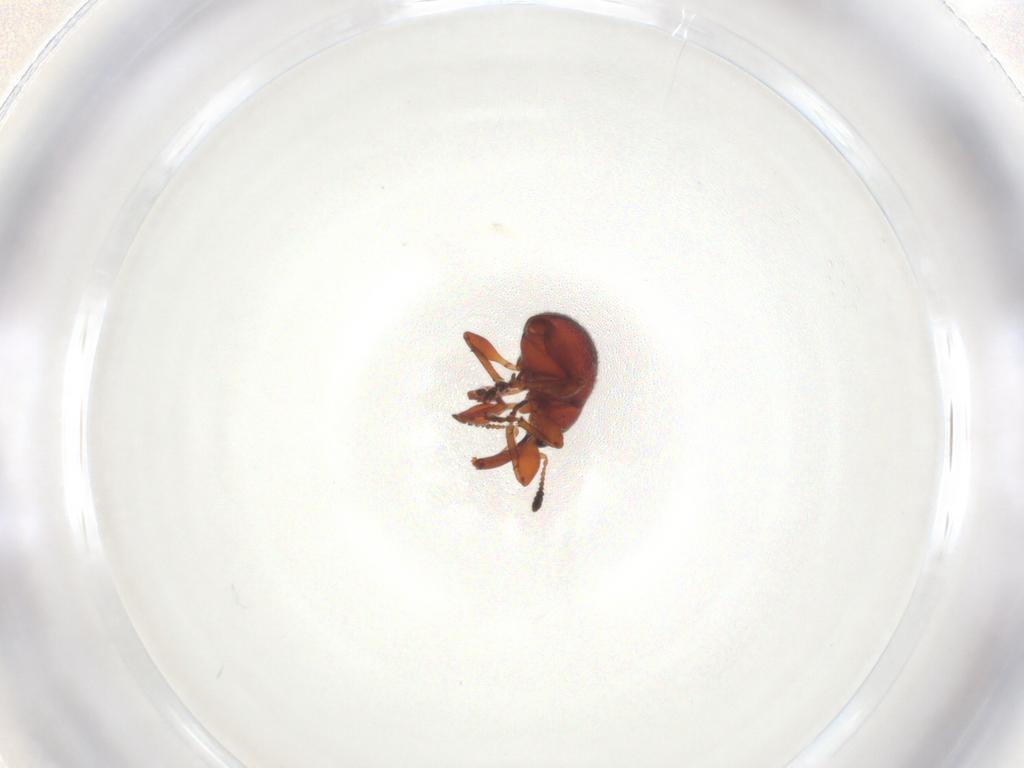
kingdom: Animalia
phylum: Arthropoda
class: Insecta
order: Coleoptera
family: Brentidae
